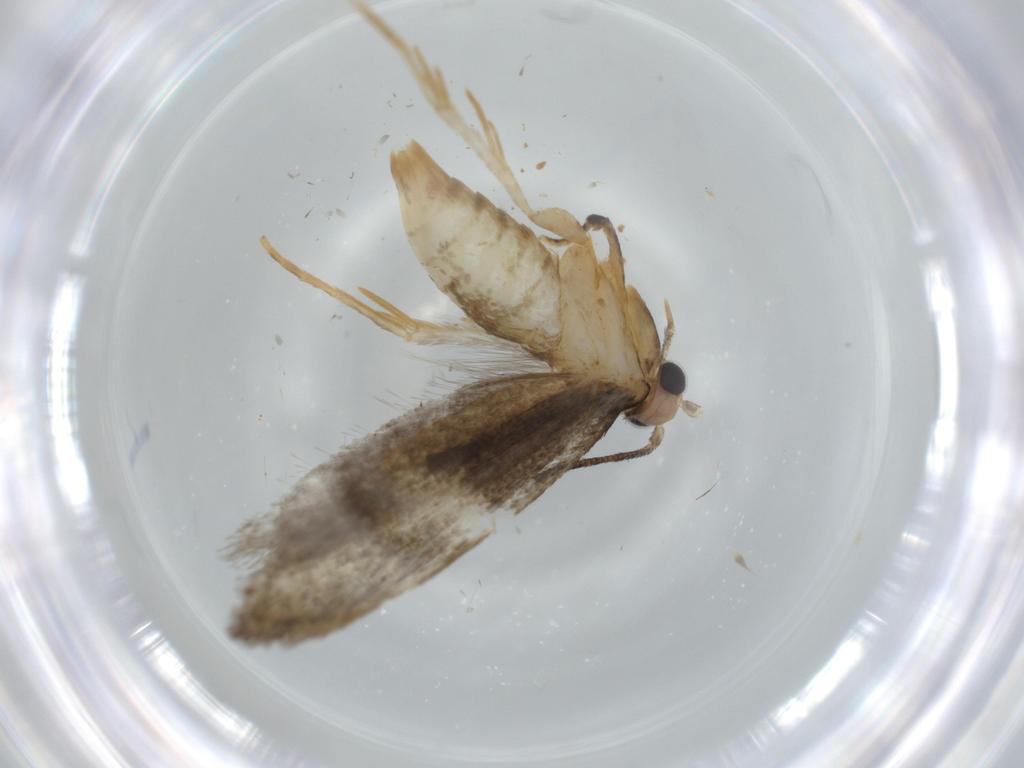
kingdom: Animalia
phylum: Arthropoda
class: Insecta
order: Lepidoptera
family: Tineidae
